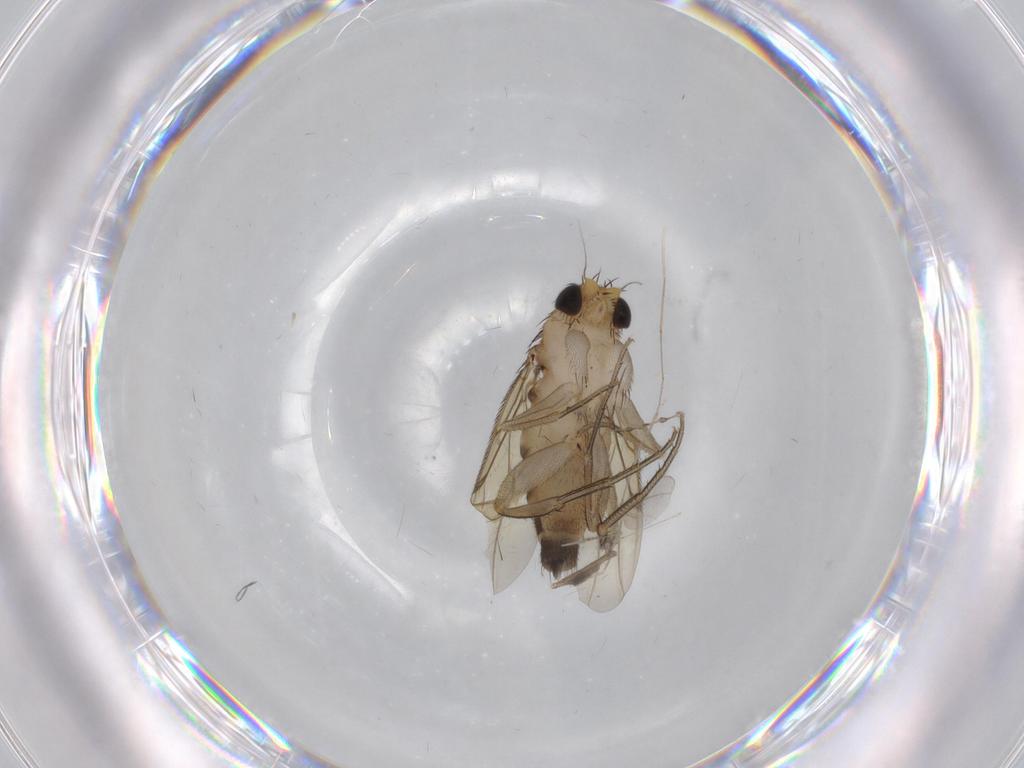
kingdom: Animalia
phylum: Arthropoda
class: Insecta
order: Diptera
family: Phoridae
